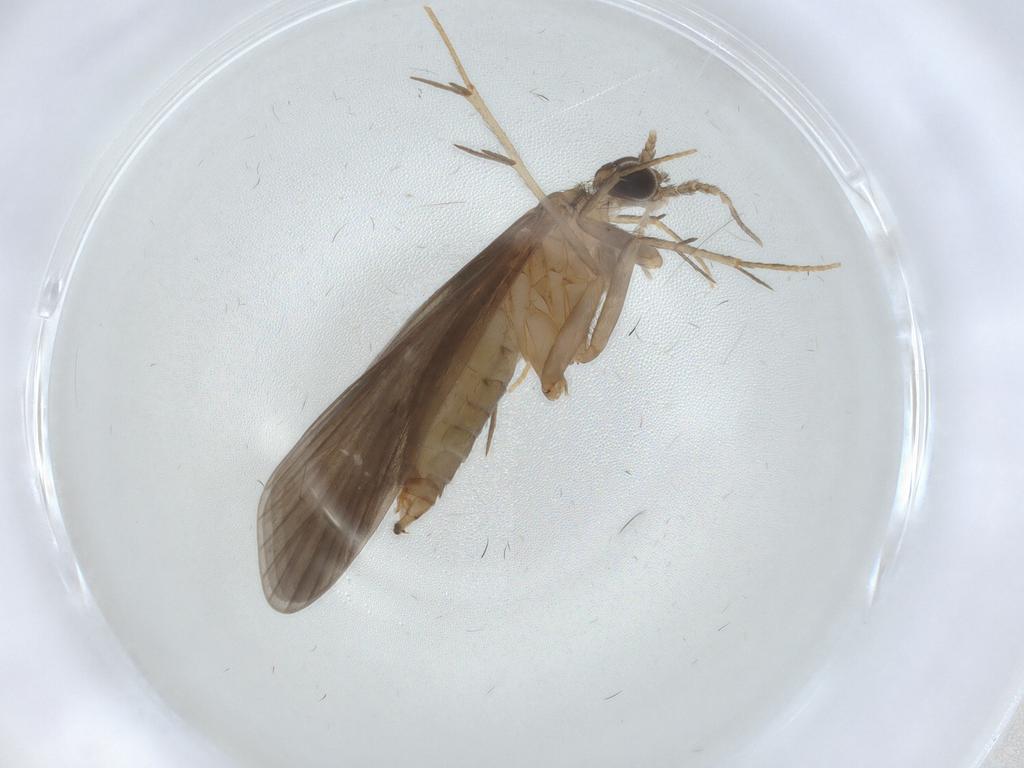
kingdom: Animalia
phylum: Arthropoda
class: Insecta
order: Trichoptera
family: Philopotamidae
